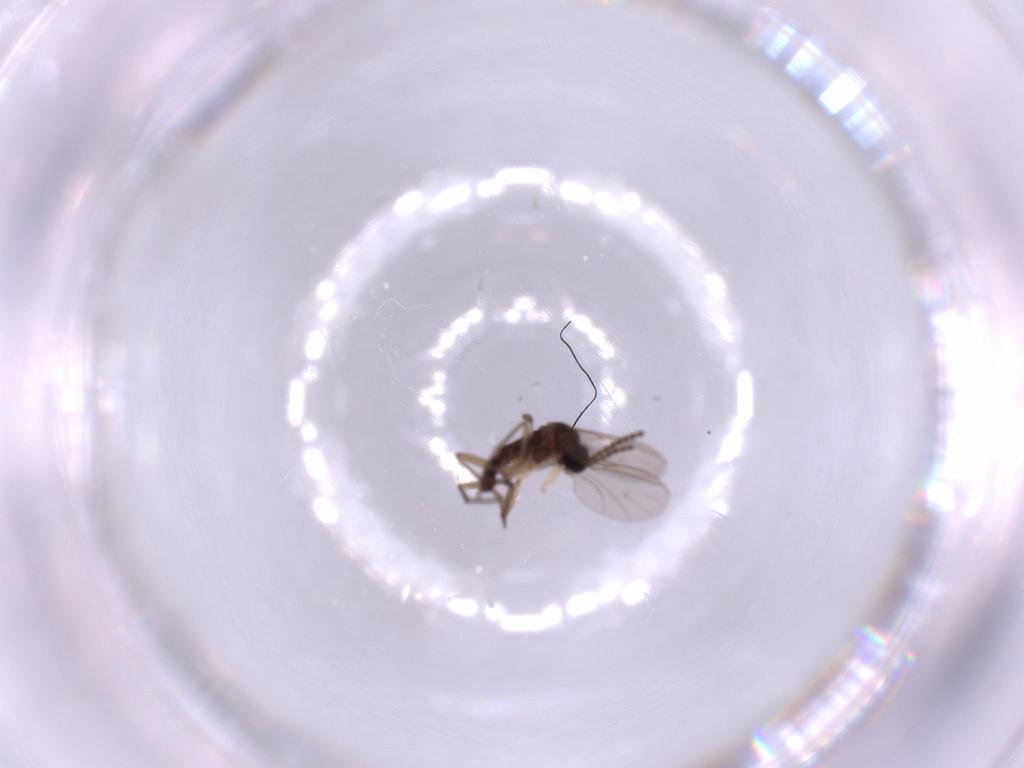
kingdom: Animalia
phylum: Arthropoda
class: Insecta
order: Diptera
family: Sciaridae
